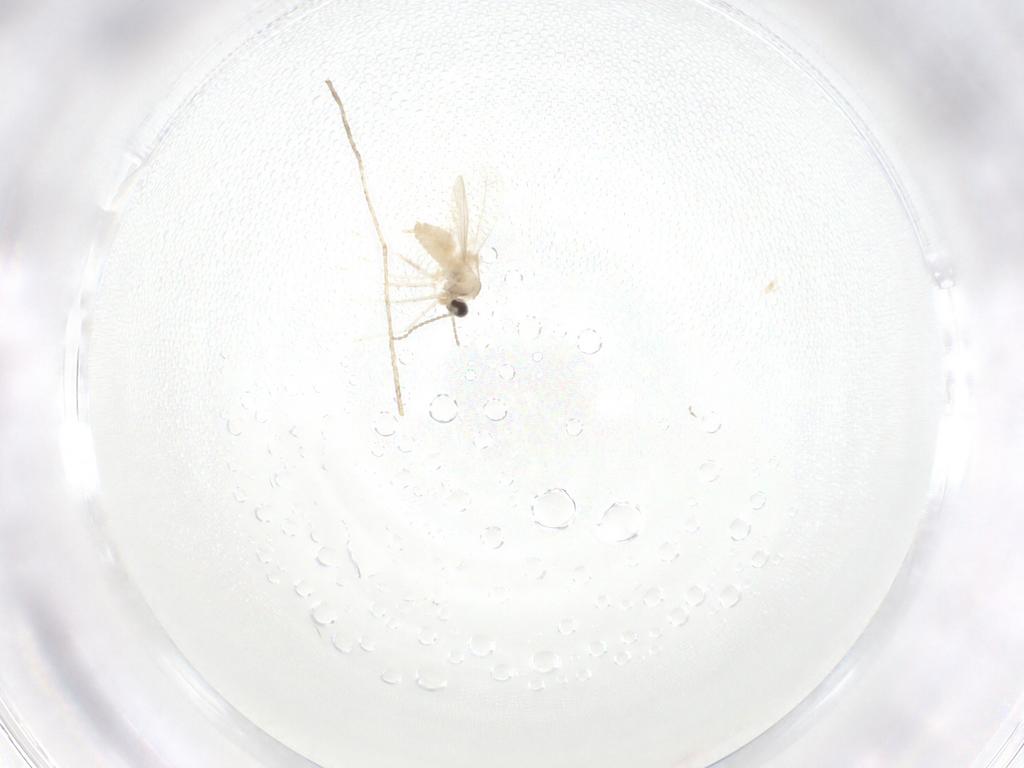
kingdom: Animalia
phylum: Arthropoda
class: Insecta
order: Diptera
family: Cecidomyiidae
